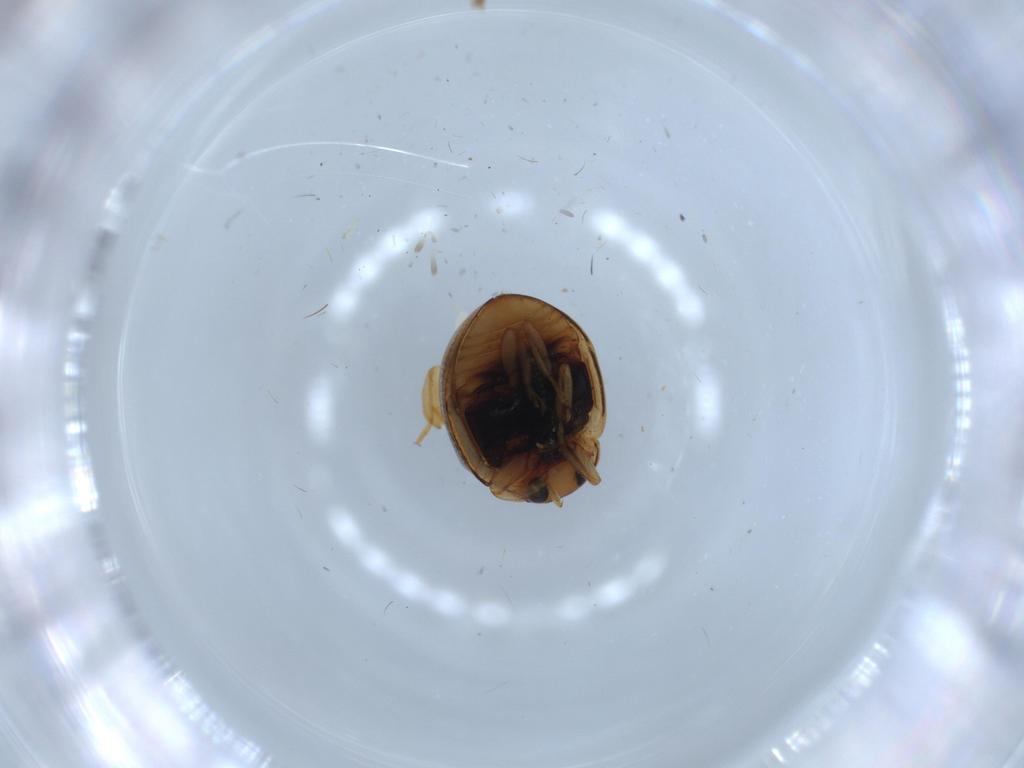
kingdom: Animalia
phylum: Arthropoda
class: Insecta
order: Coleoptera
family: Coccinellidae
